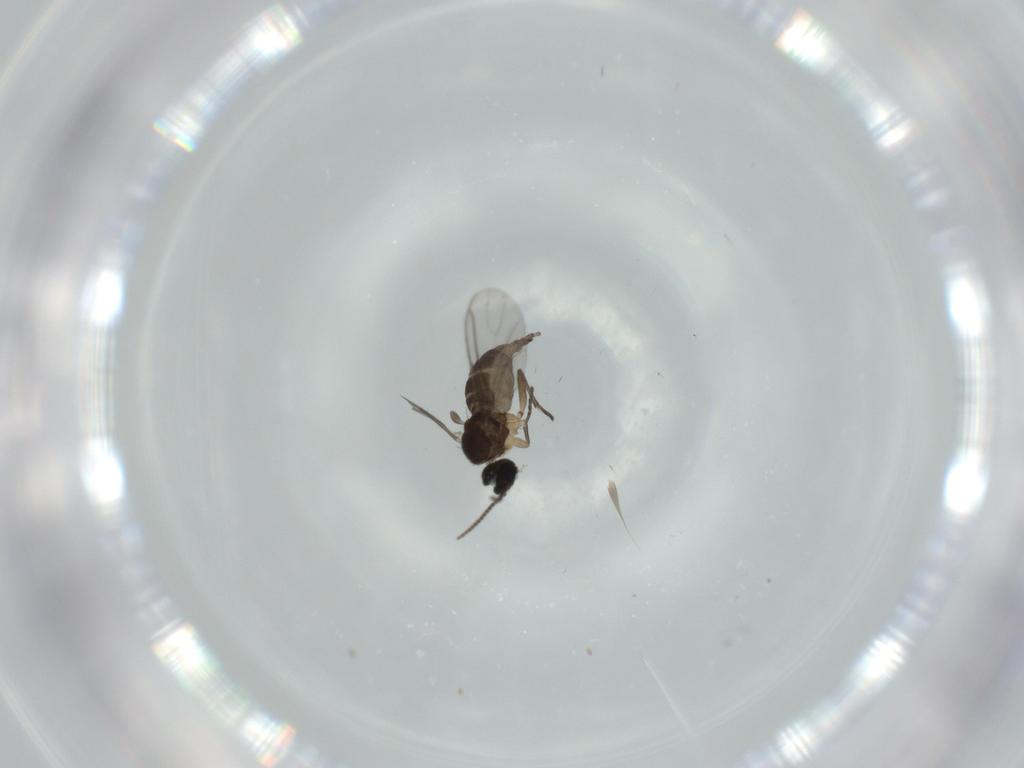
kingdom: Animalia
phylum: Arthropoda
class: Insecta
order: Diptera
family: Sciaridae
